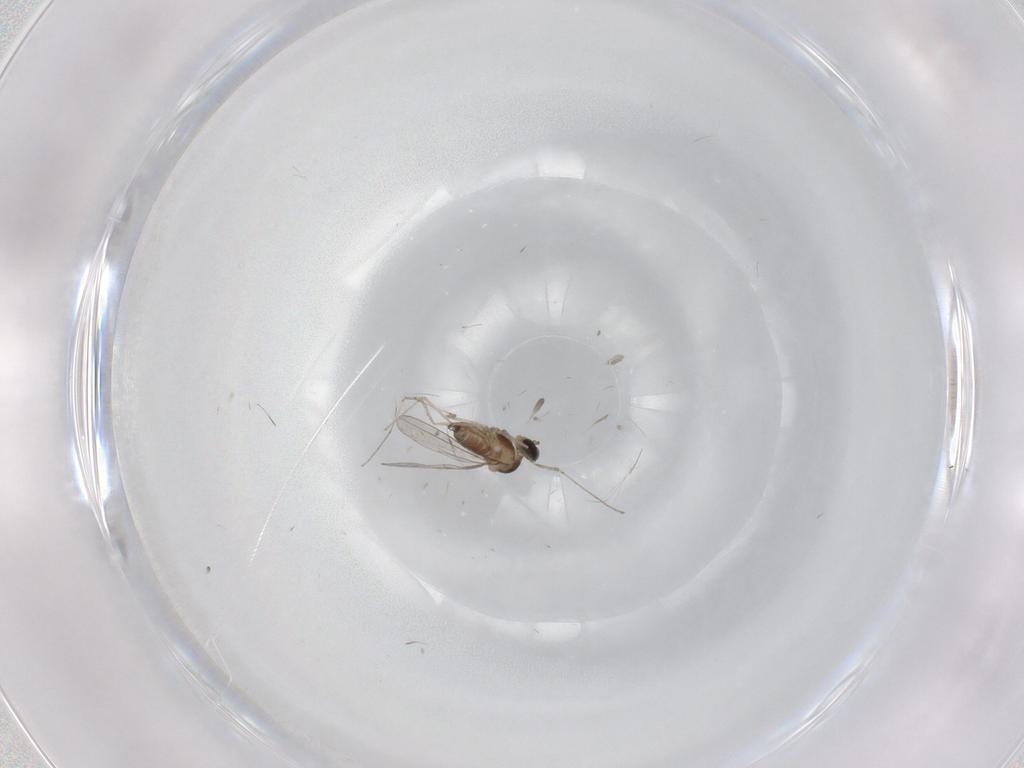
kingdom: Animalia
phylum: Arthropoda
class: Insecta
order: Diptera
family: Cecidomyiidae
